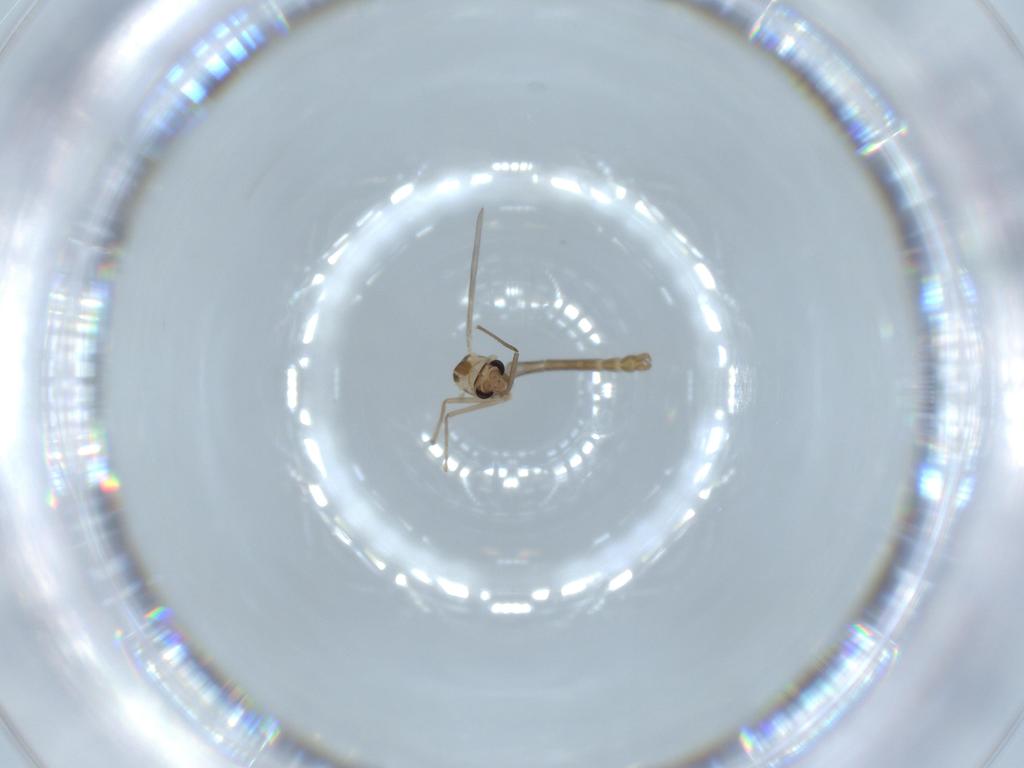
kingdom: Animalia
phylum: Arthropoda
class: Insecta
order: Diptera
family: Chironomidae
